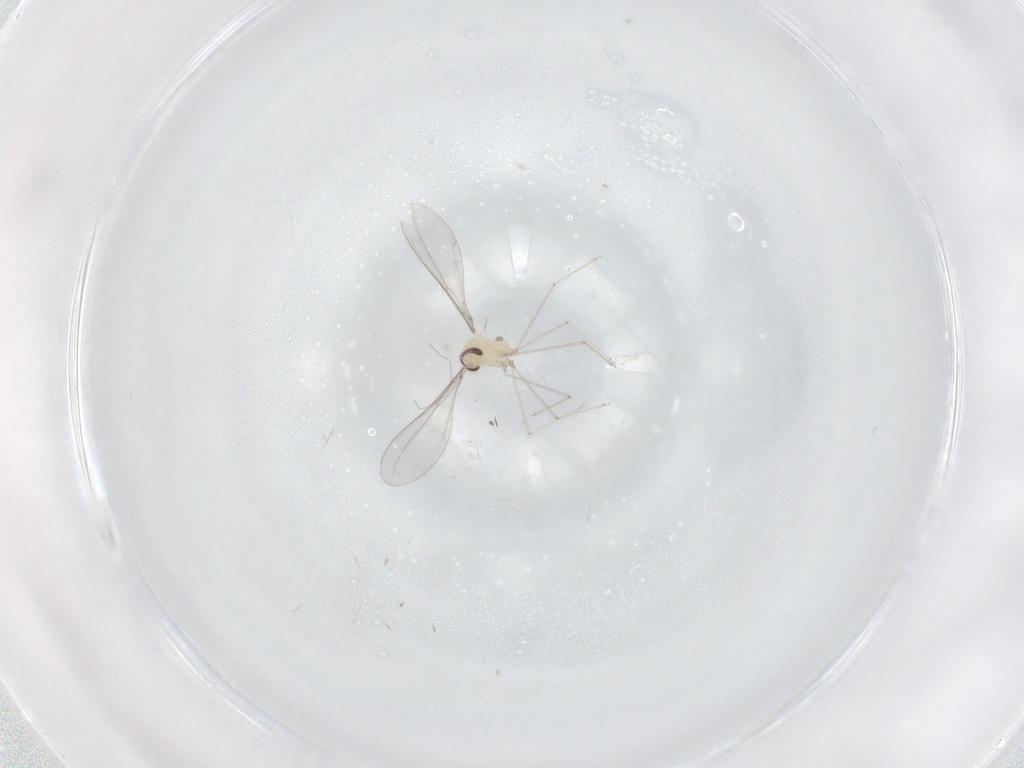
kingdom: Animalia
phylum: Arthropoda
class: Insecta
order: Diptera
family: Cecidomyiidae
